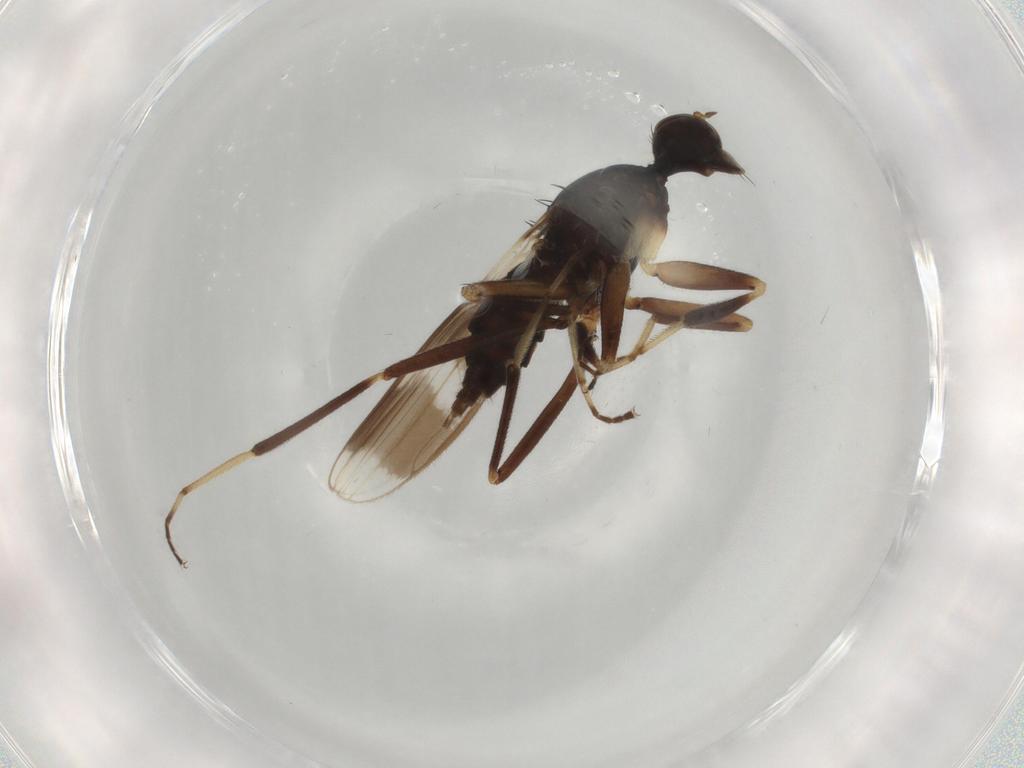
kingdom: Animalia
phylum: Arthropoda
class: Insecta
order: Diptera
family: Hybotidae
